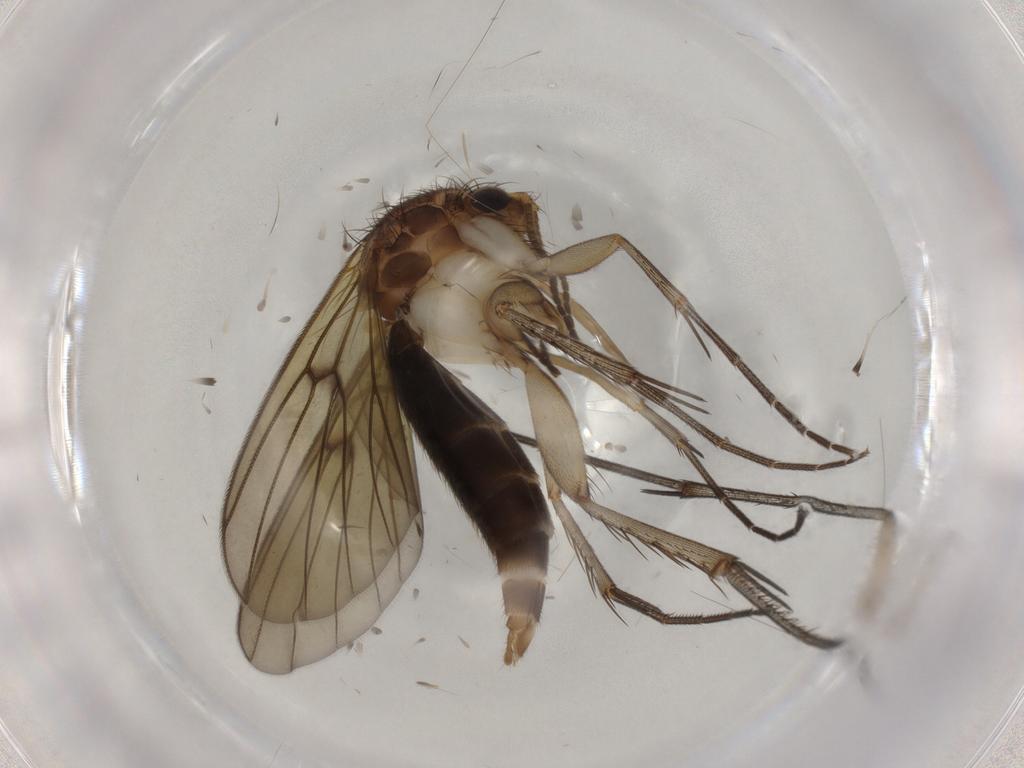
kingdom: Animalia
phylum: Arthropoda
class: Insecta
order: Diptera
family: Mycetophilidae
